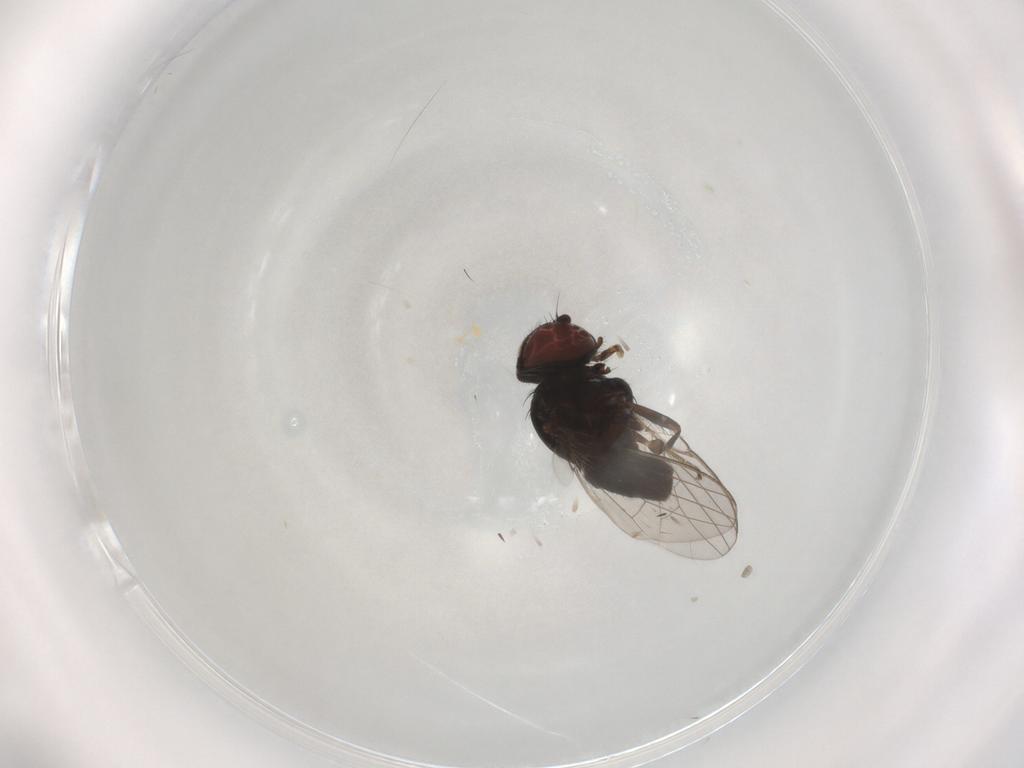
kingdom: Animalia
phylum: Arthropoda
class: Insecta
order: Diptera
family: Milichiidae
